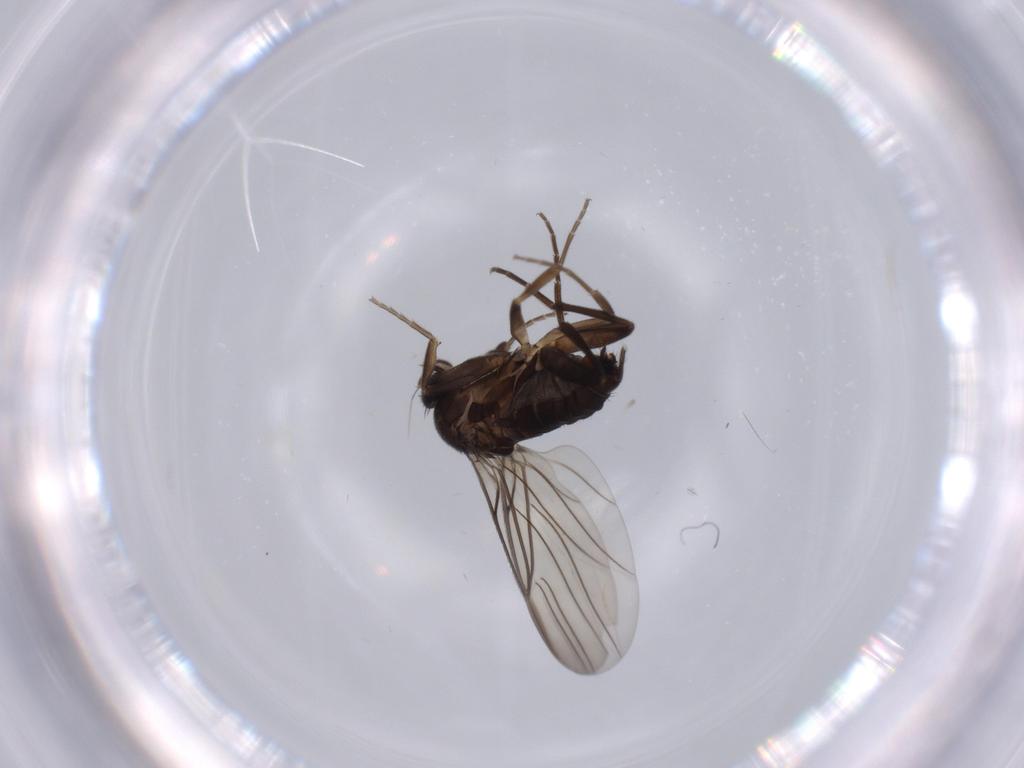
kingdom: Animalia
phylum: Arthropoda
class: Insecta
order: Diptera
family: Phoridae
